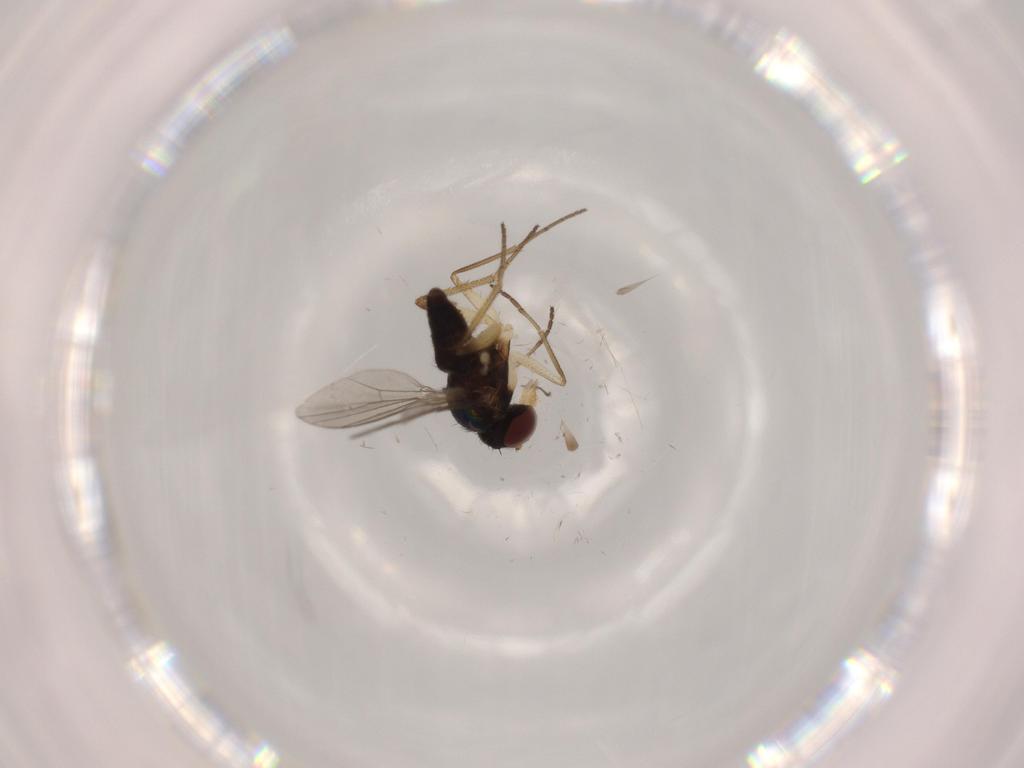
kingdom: Animalia
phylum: Arthropoda
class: Insecta
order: Diptera
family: Dolichopodidae
